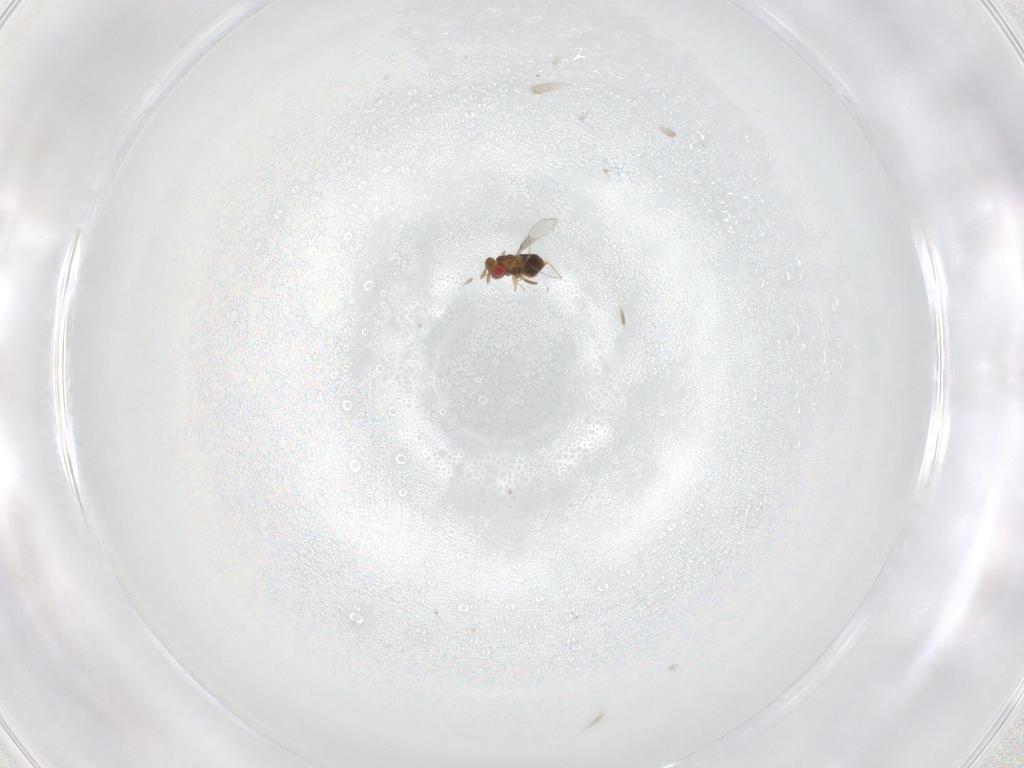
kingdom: Animalia
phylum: Arthropoda
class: Insecta
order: Hymenoptera
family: Trichogrammatidae
